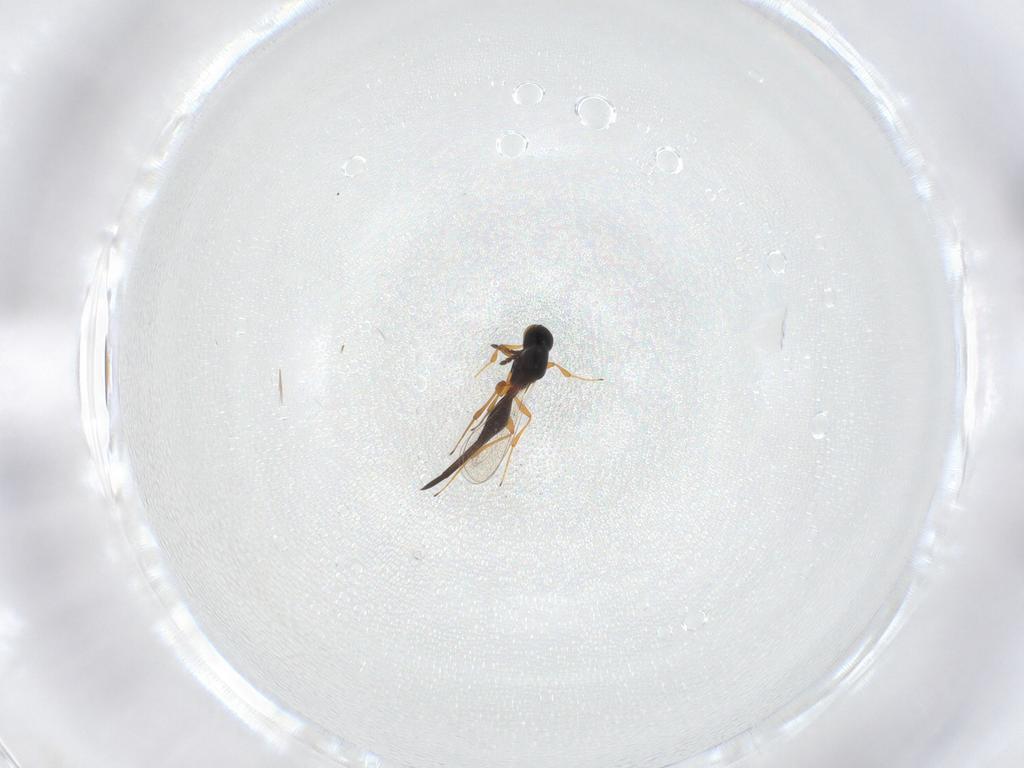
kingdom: Animalia
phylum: Arthropoda
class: Insecta
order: Hymenoptera
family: Platygastridae
